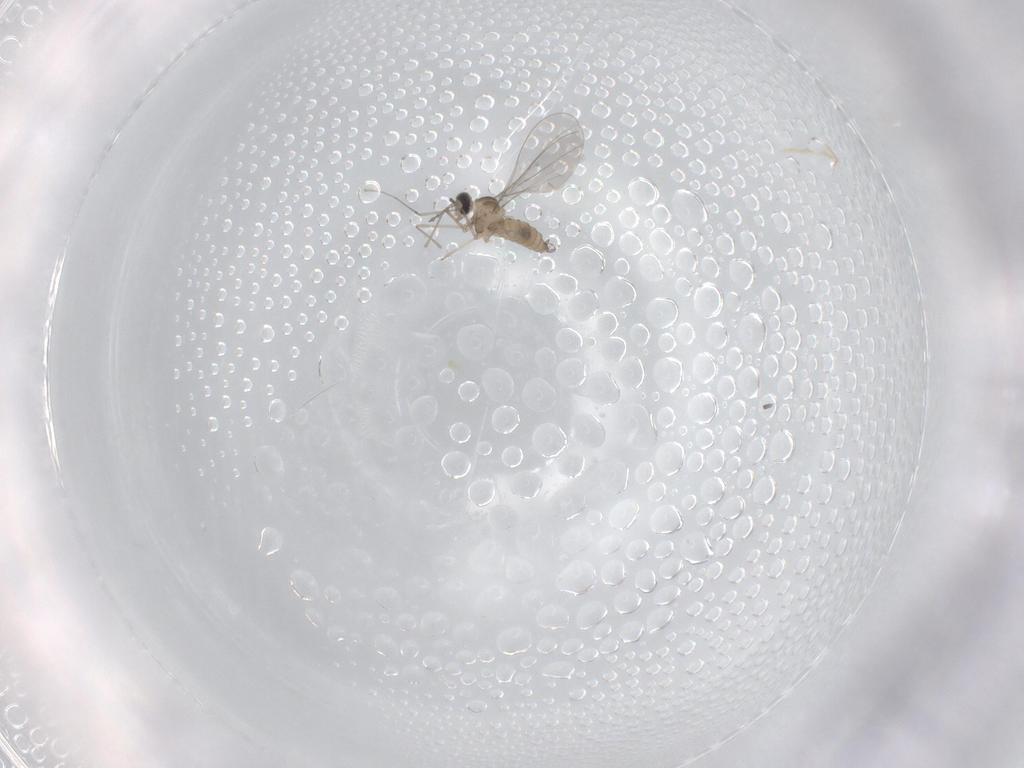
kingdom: Animalia
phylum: Arthropoda
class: Insecta
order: Diptera
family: Cecidomyiidae
